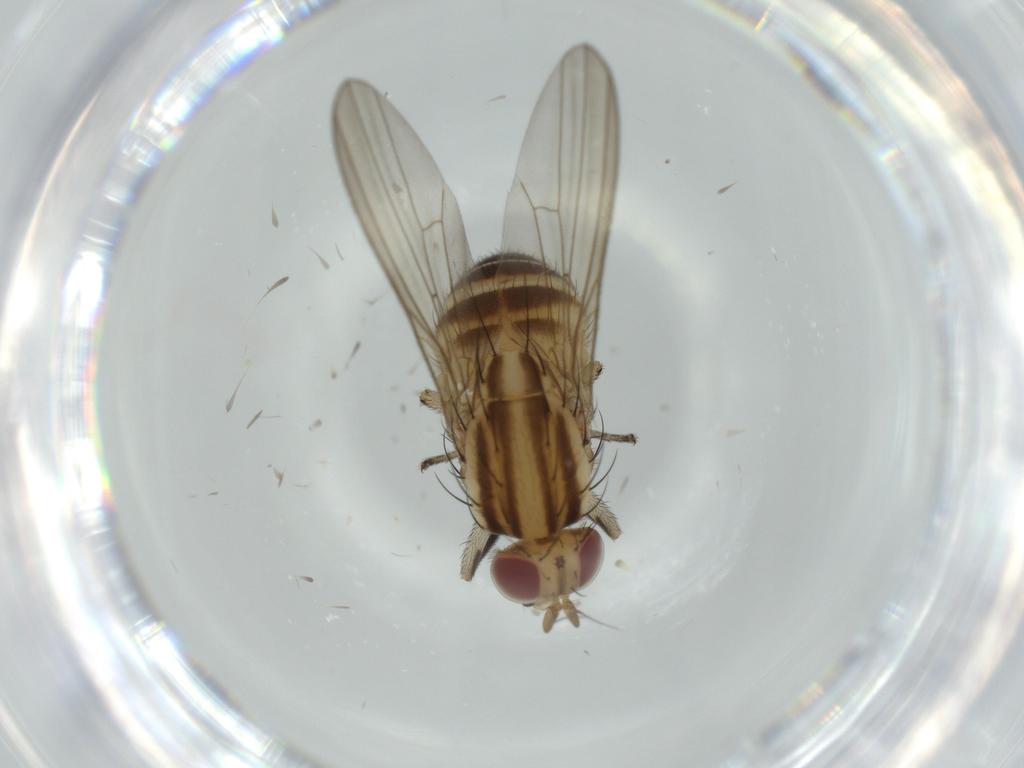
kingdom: Animalia
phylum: Arthropoda
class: Insecta
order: Diptera
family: Lauxaniidae
